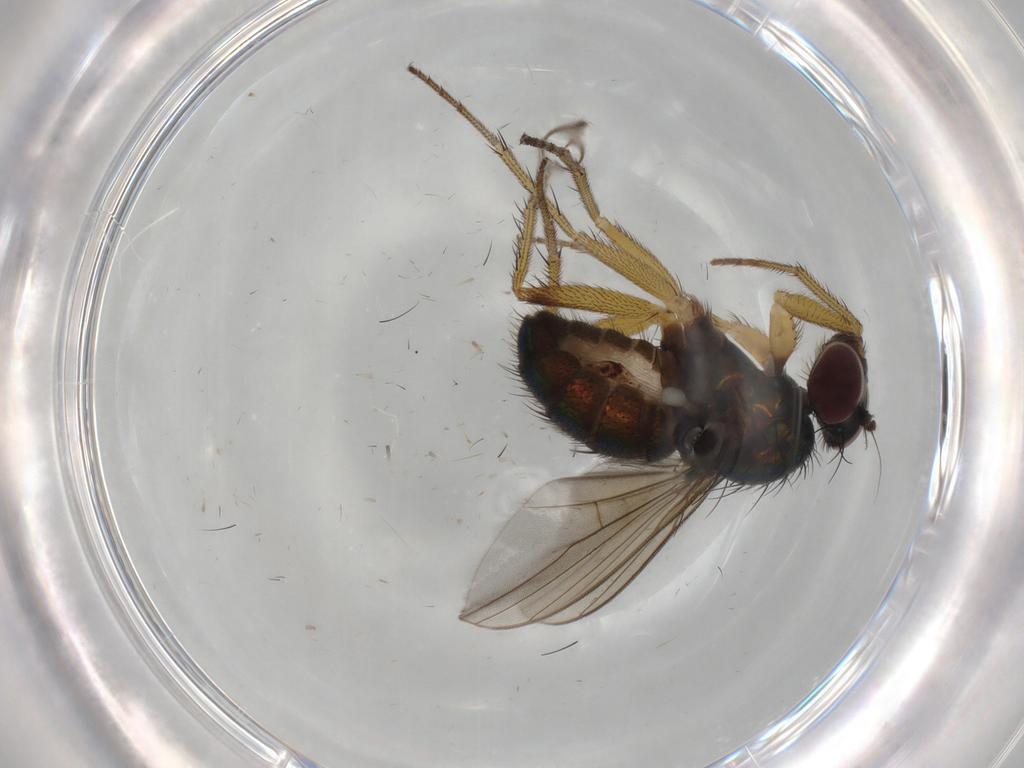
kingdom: Animalia
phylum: Arthropoda
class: Insecta
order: Diptera
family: Dolichopodidae
